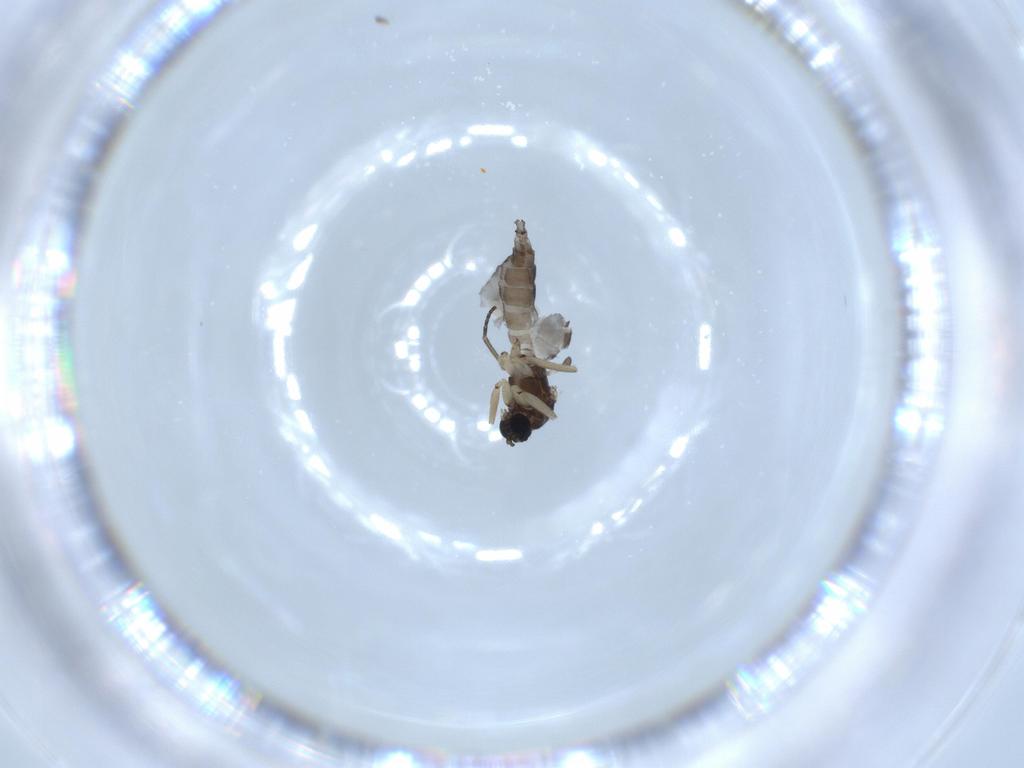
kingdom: Animalia
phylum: Arthropoda
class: Insecta
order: Diptera
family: Sciaridae
